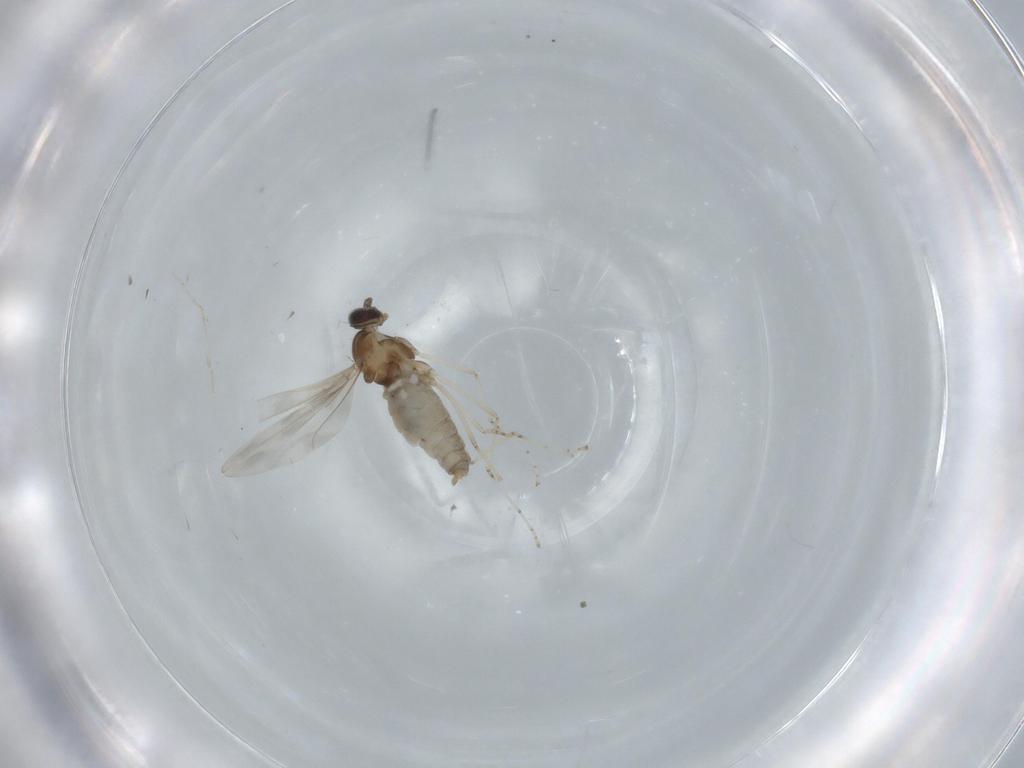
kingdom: Animalia
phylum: Arthropoda
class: Insecta
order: Diptera
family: Cecidomyiidae
